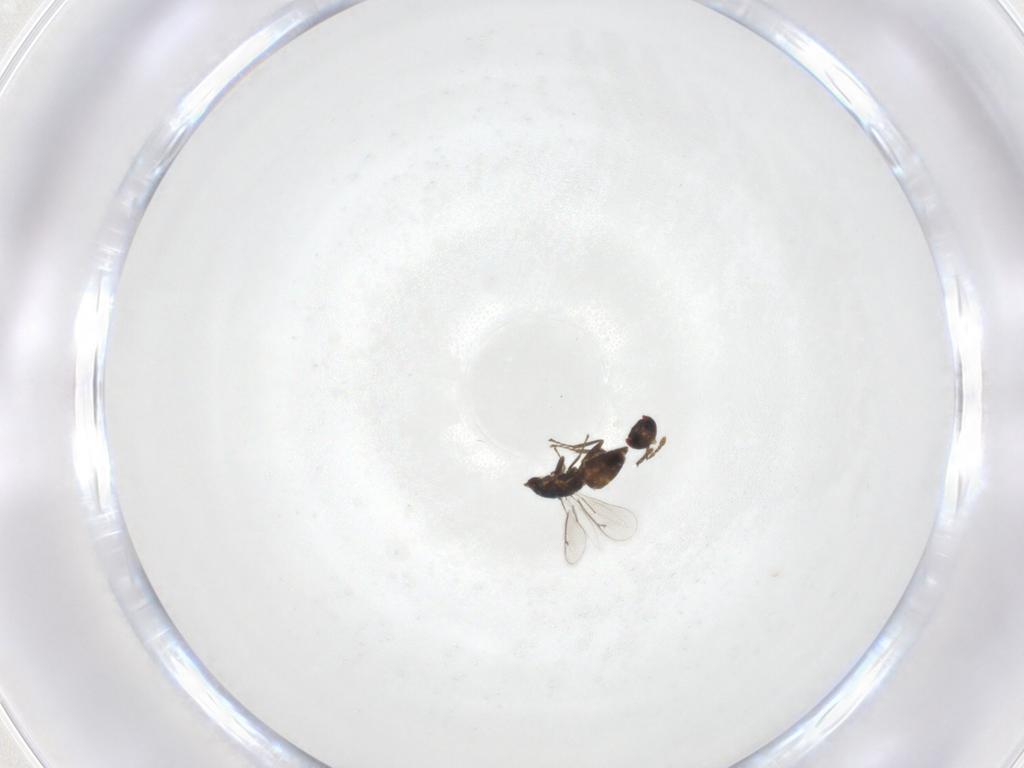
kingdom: Animalia
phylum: Arthropoda
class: Insecta
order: Hymenoptera
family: Eulophidae
